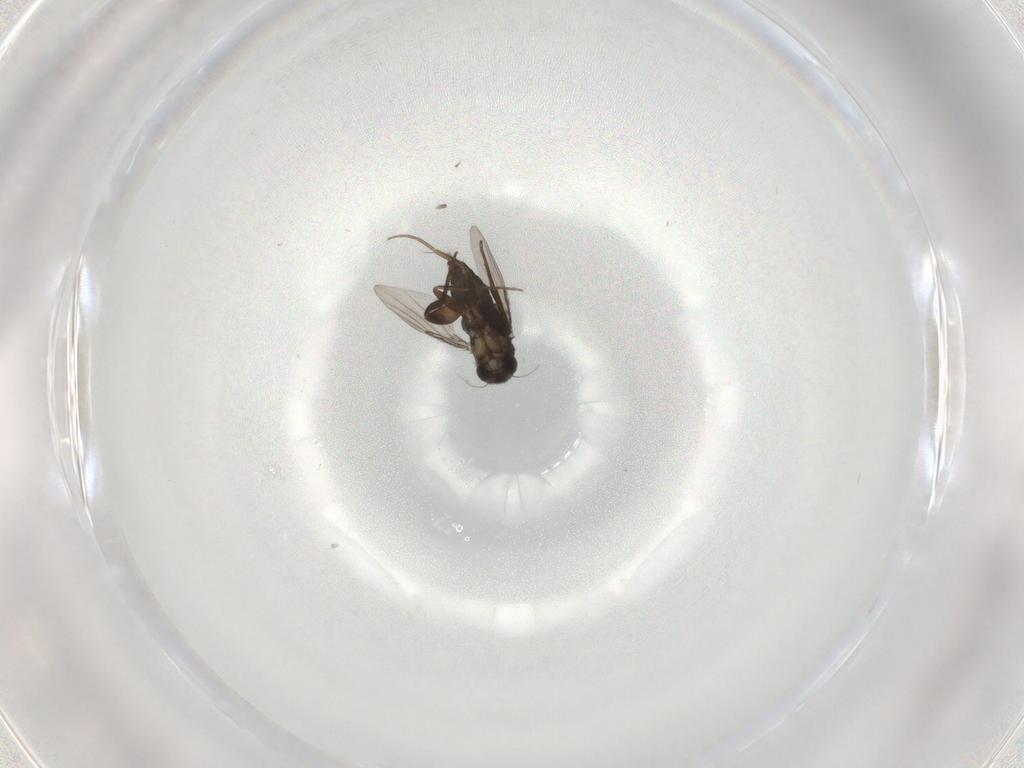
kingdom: Animalia
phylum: Arthropoda
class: Insecta
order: Diptera
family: Phoridae
